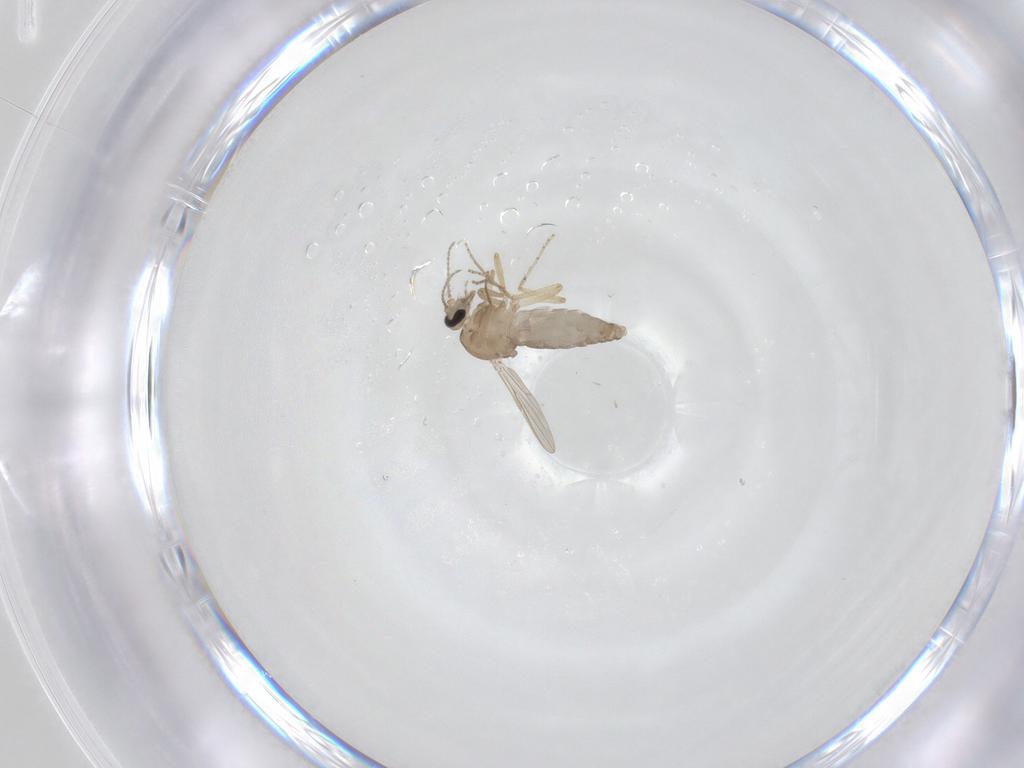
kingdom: Animalia
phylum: Arthropoda
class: Insecta
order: Diptera
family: Ceratopogonidae
